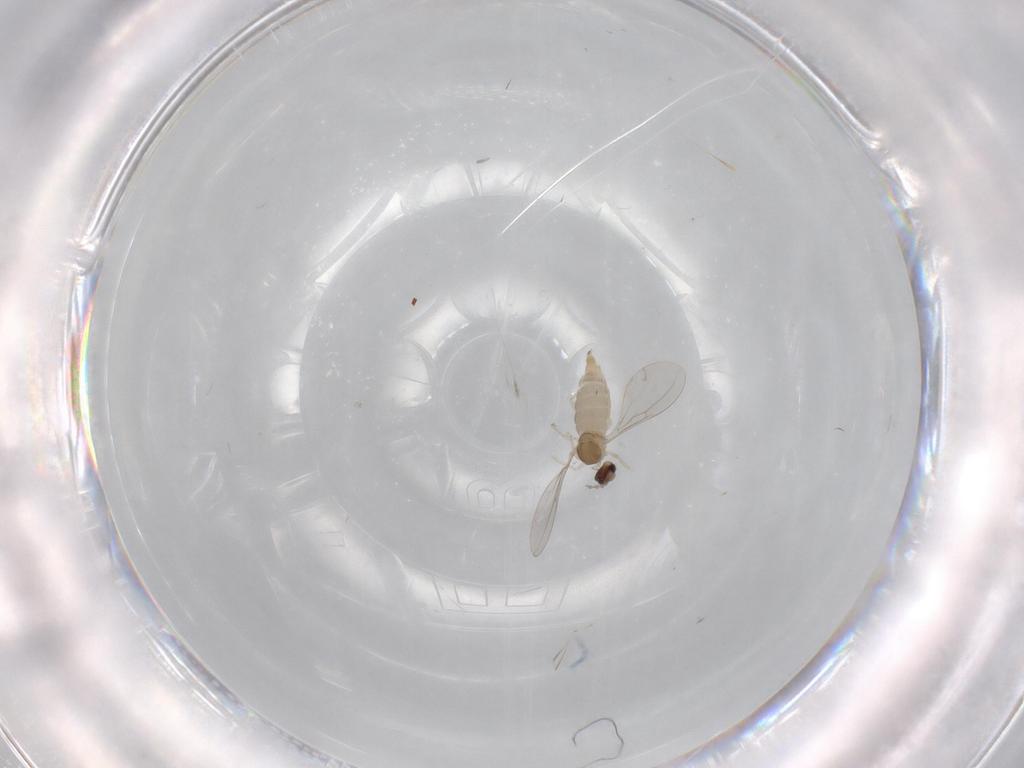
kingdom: Animalia
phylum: Arthropoda
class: Insecta
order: Diptera
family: Cecidomyiidae
